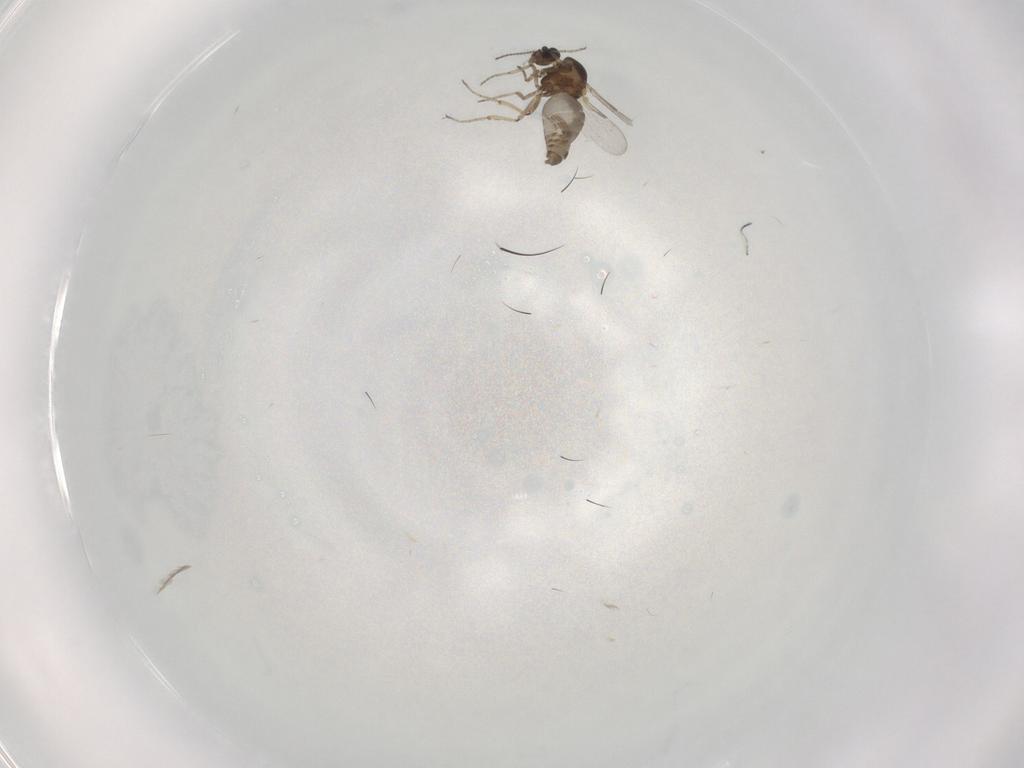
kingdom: Animalia
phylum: Arthropoda
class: Insecta
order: Diptera
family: Ceratopogonidae
